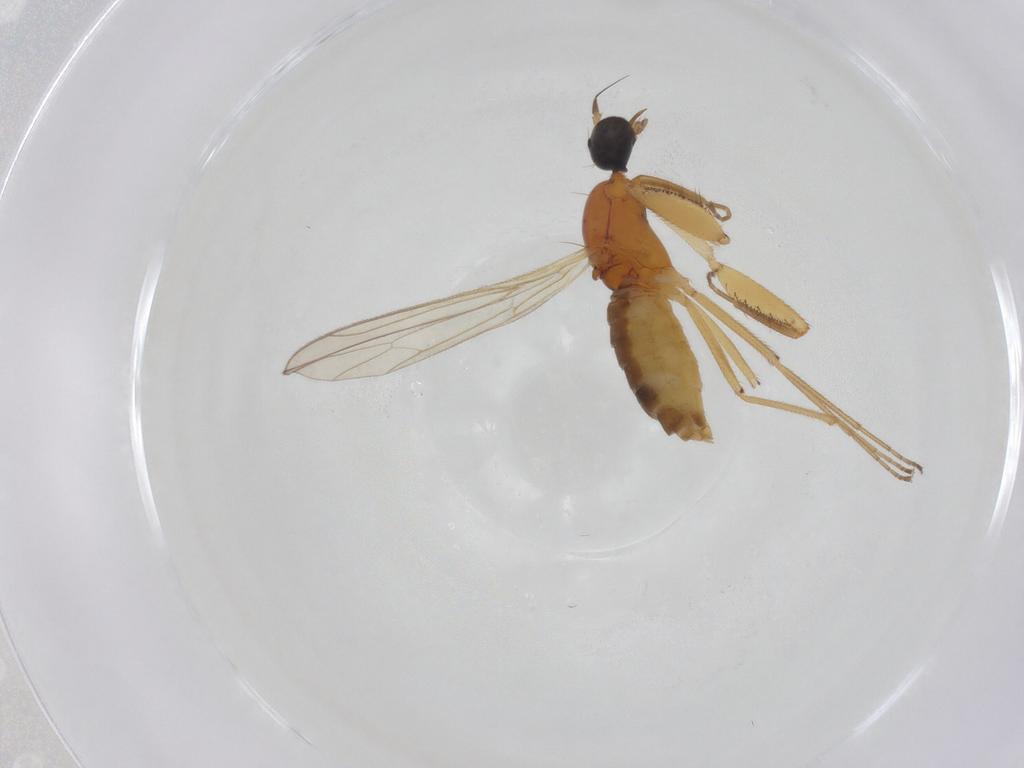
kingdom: Animalia
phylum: Arthropoda
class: Insecta
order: Diptera
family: Empididae
